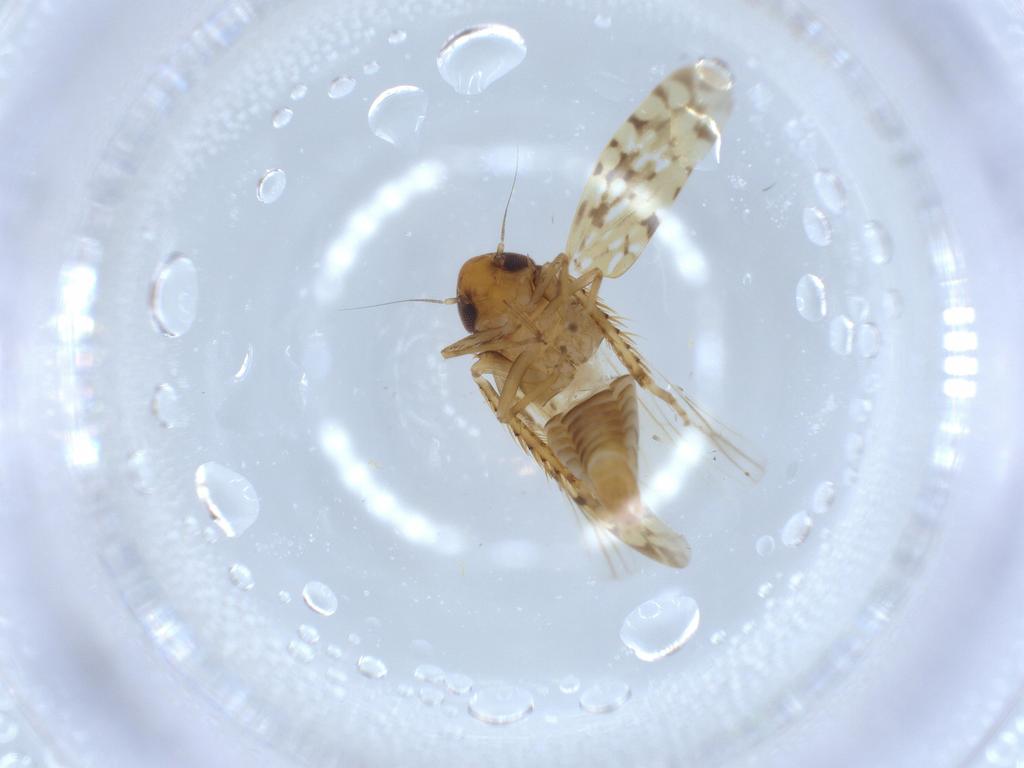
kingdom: Animalia
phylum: Arthropoda
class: Insecta
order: Hemiptera
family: Cicadellidae
